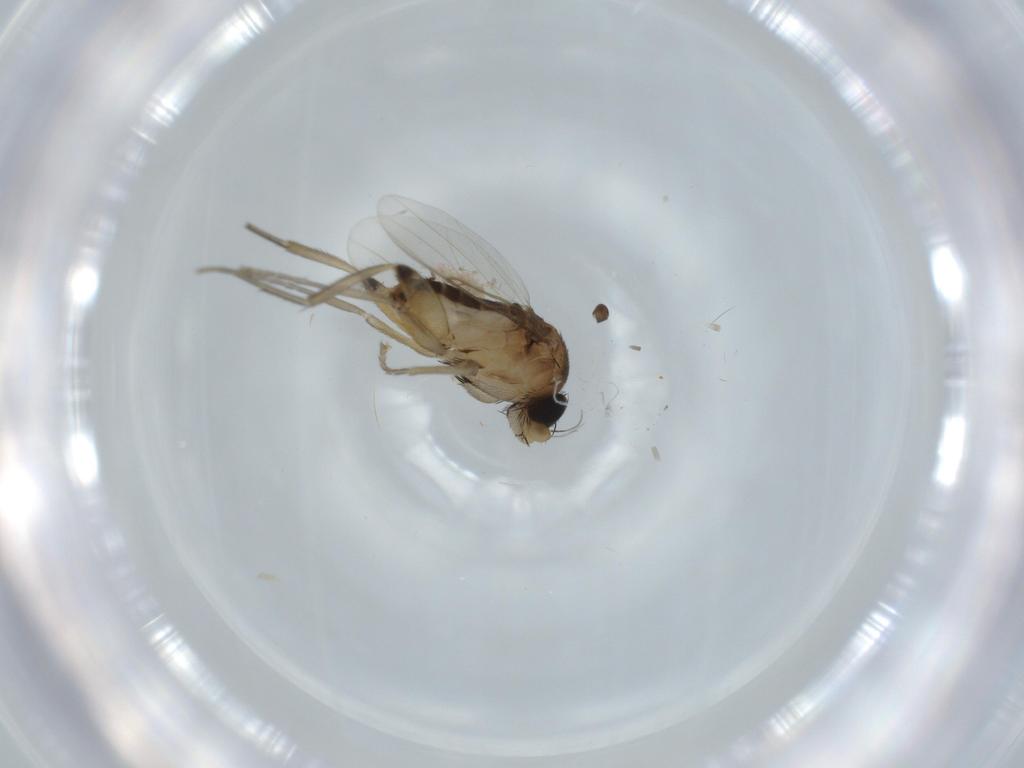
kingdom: Animalia
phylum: Arthropoda
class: Insecta
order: Diptera
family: Phoridae
